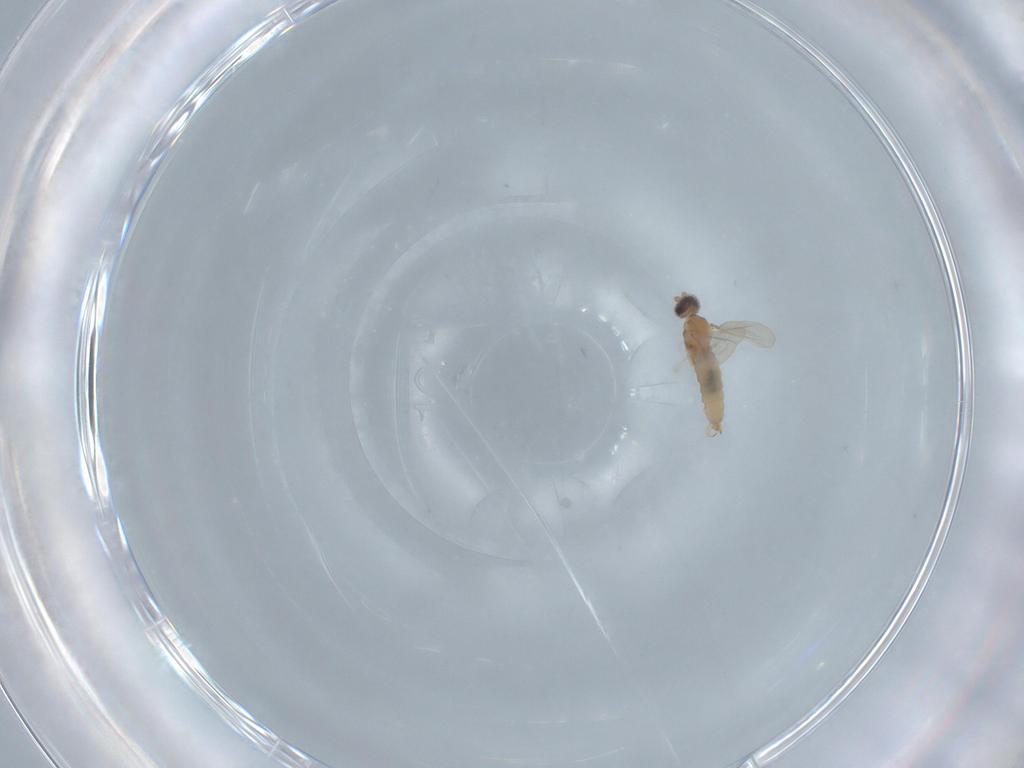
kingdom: Animalia
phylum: Arthropoda
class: Insecta
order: Diptera
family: Cecidomyiidae
